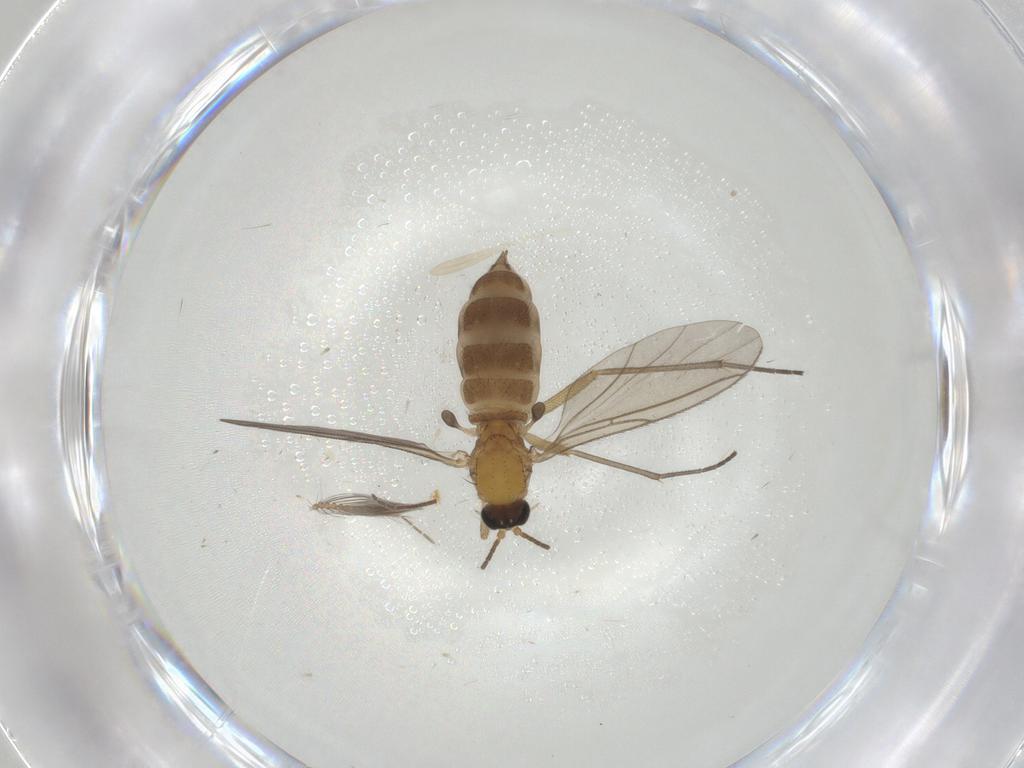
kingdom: Animalia
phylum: Arthropoda
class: Insecta
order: Diptera
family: Sciaridae
